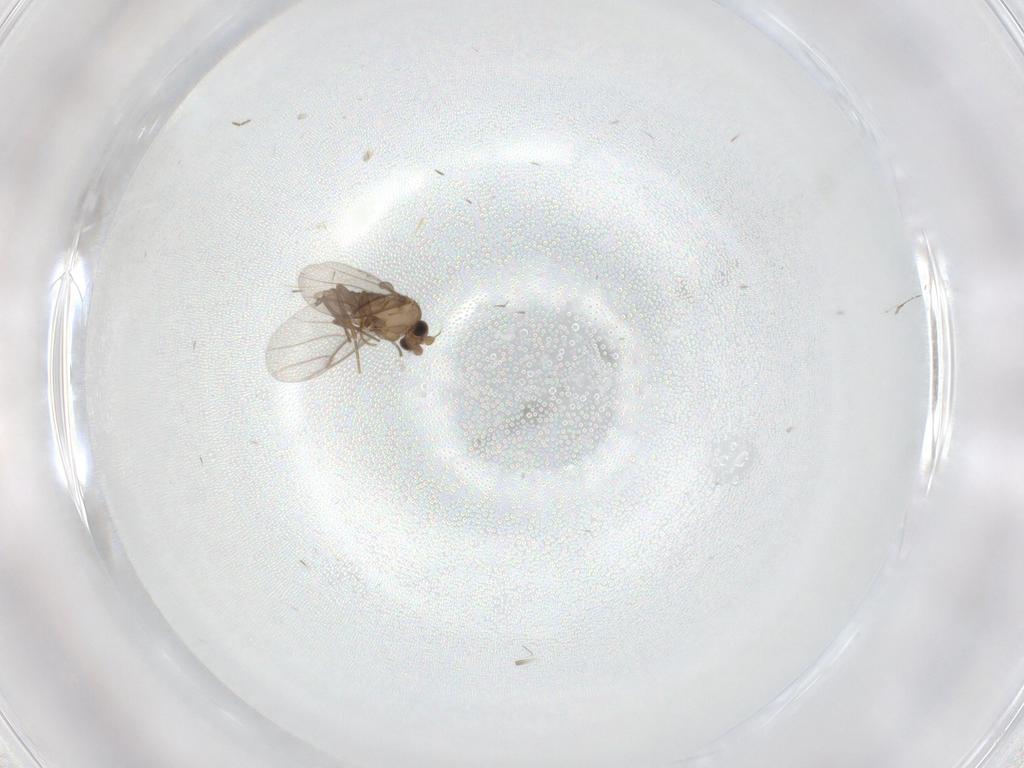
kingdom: Animalia
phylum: Arthropoda
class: Insecta
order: Diptera
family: Cecidomyiidae
